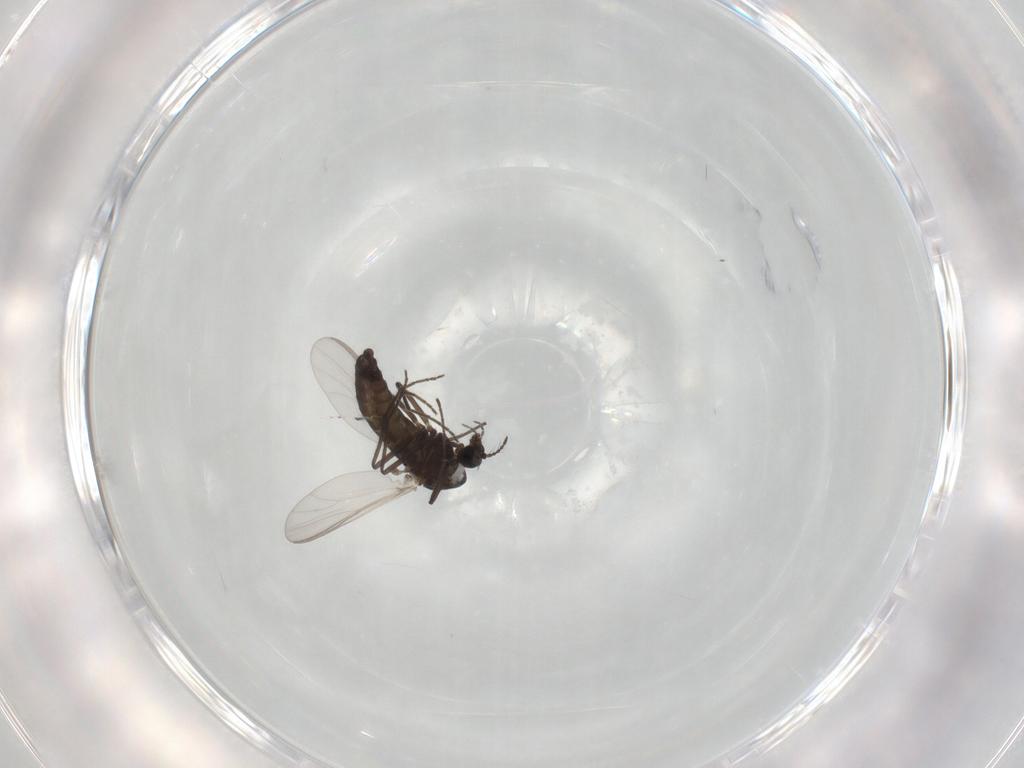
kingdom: Animalia
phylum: Arthropoda
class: Insecta
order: Diptera
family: Chironomidae
